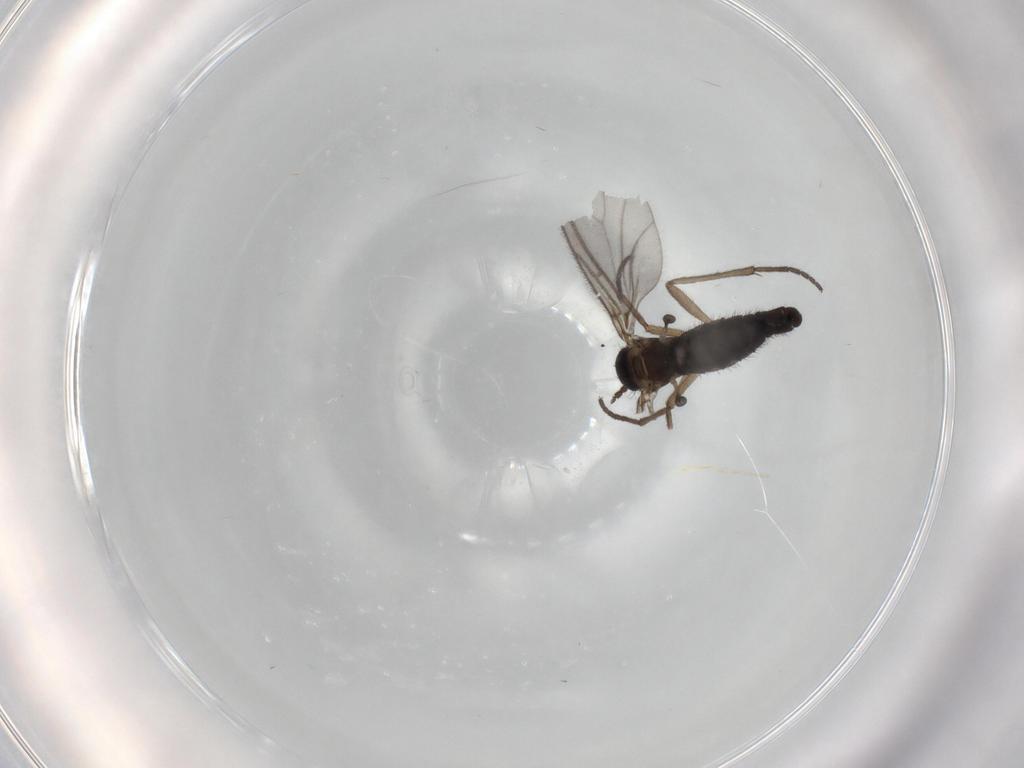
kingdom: Animalia
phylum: Arthropoda
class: Insecta
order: Diptera
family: Sciaridae
